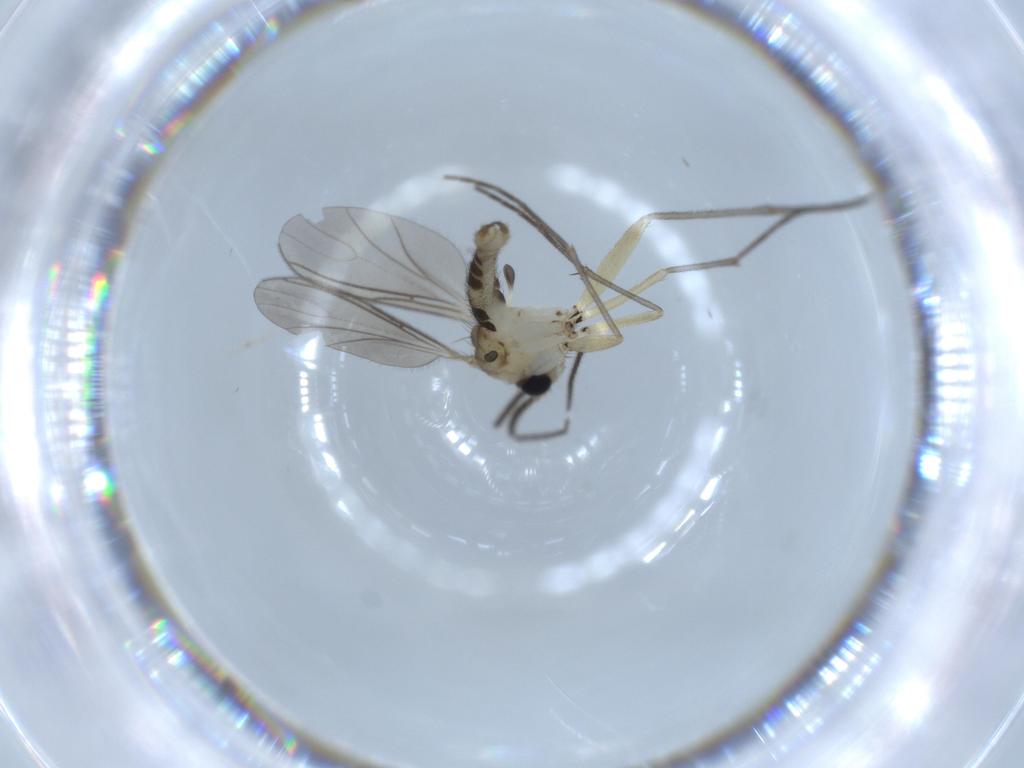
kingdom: Animalia
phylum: Arthropoda
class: Insecta
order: Diptera
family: Sciaridae
